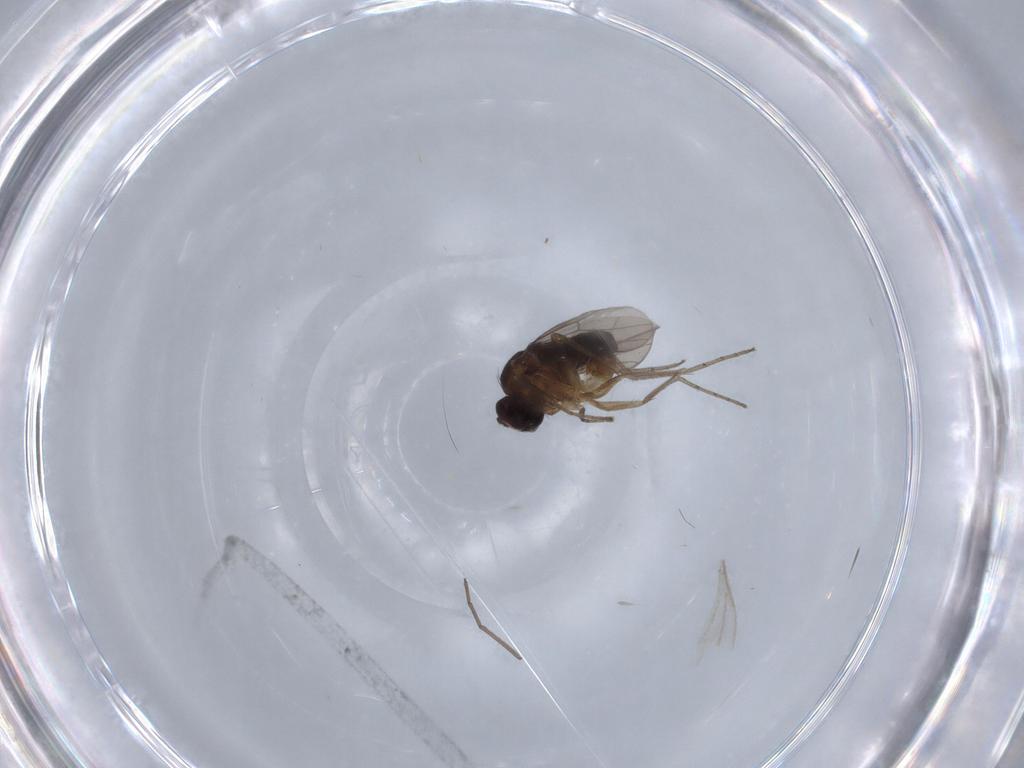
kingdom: Animalia
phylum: Arthropoda
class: Insecta
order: Diptera
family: Dolichopodidae
